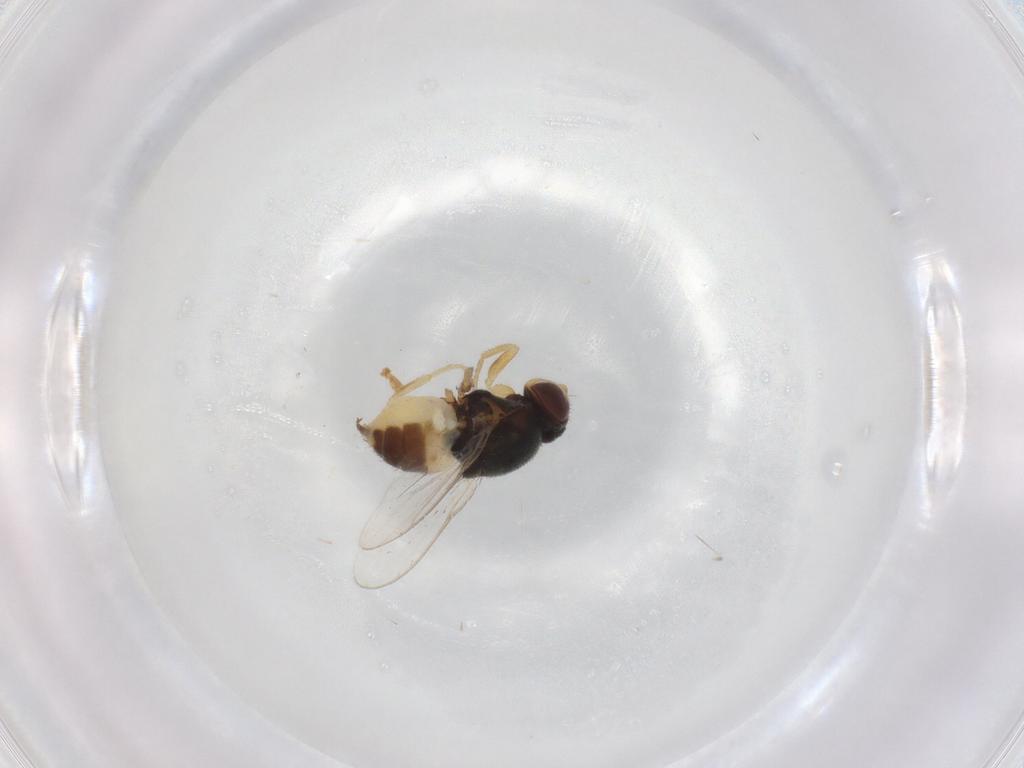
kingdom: Animalia
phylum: Arthropoda
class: Insecta
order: Diptera
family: Chloropidae
